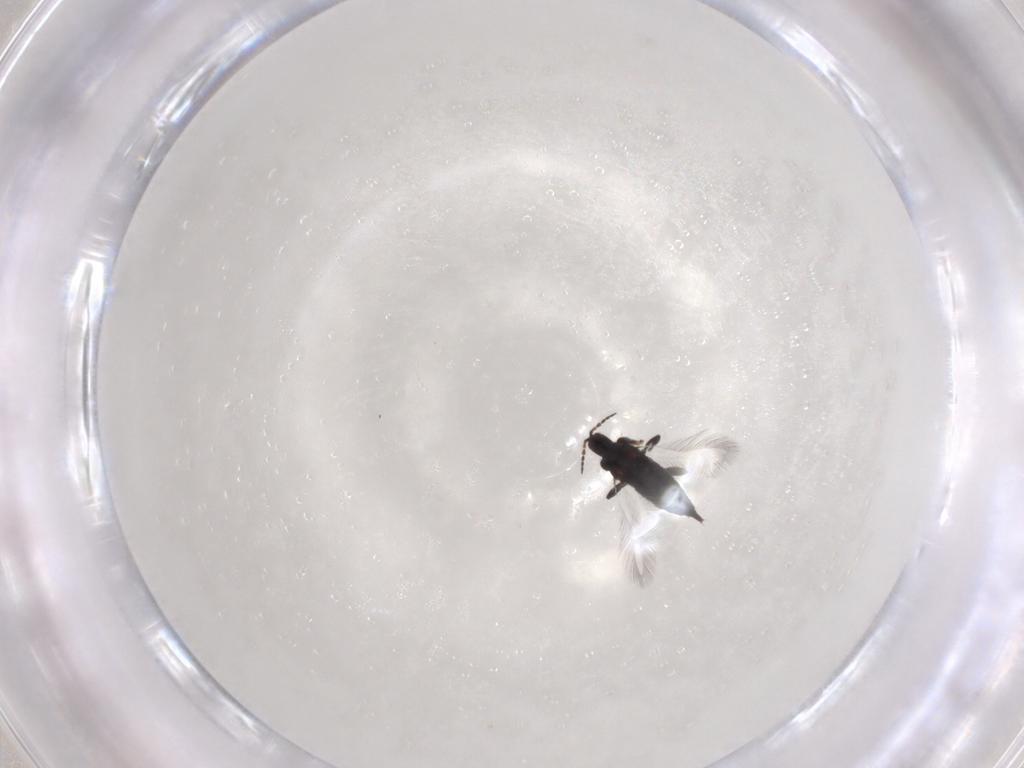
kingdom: Animalia
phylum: Arthropoda
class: Insecta
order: Thysanoptera
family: Phlaeothripidae
